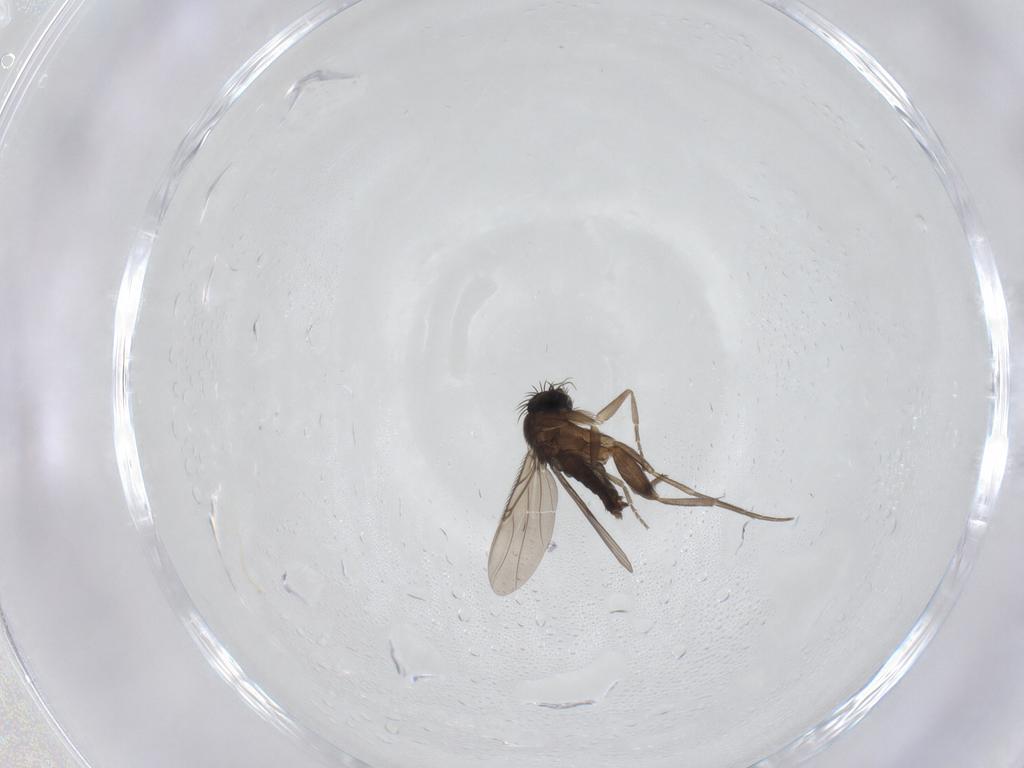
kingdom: Animalia
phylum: Arthropoda
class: Insecta
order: Diptera
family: Phoridae
